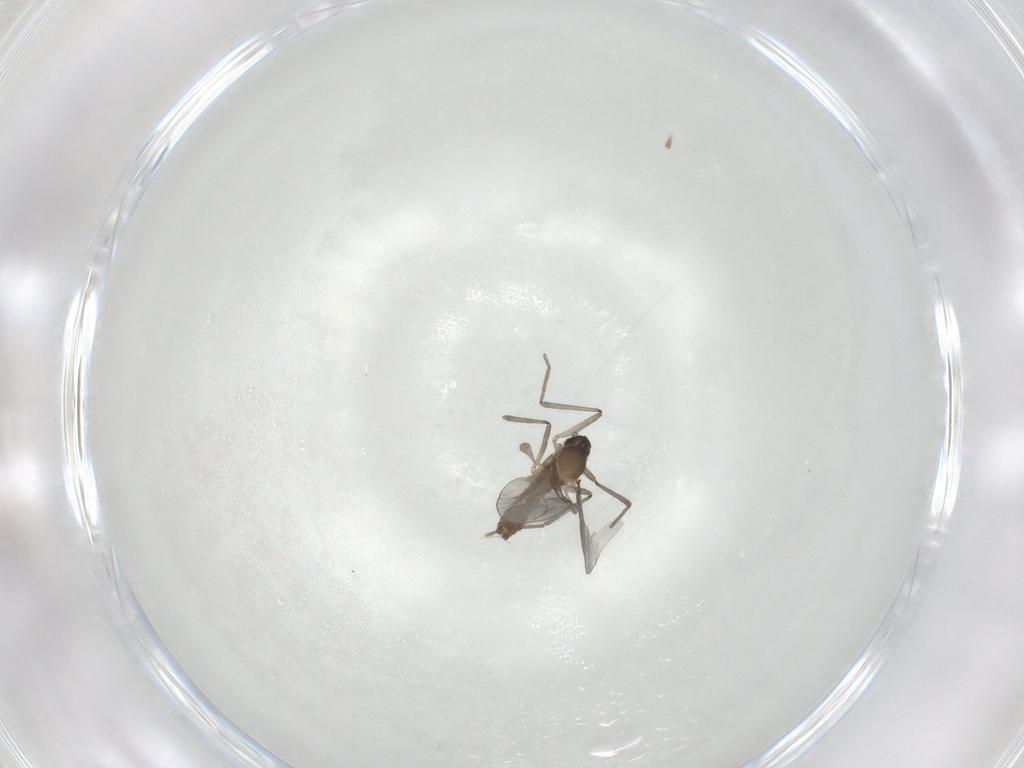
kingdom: Animalia
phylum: Arthropoda
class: Insecta
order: Diptera
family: Cecidomyiidae
